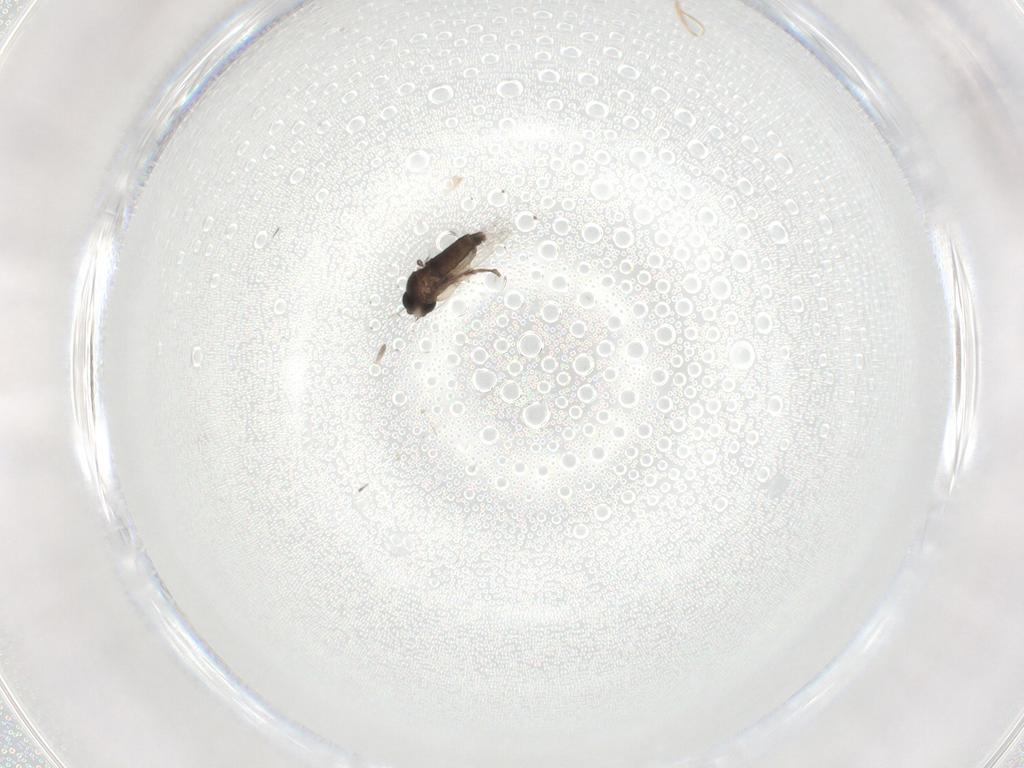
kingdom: Animalia
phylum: Arthropoda
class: Insecta
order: Diptera
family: Phoridae
